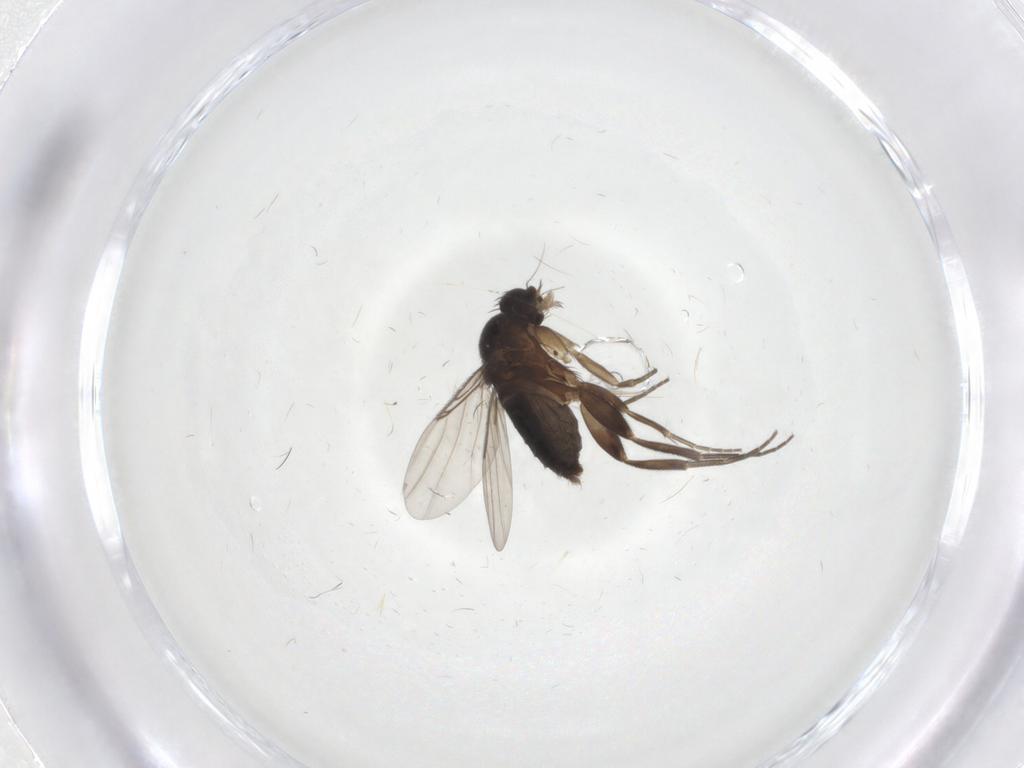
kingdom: Animalia
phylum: Arthropoda
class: Insecta
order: Diptera
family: Phoridae
